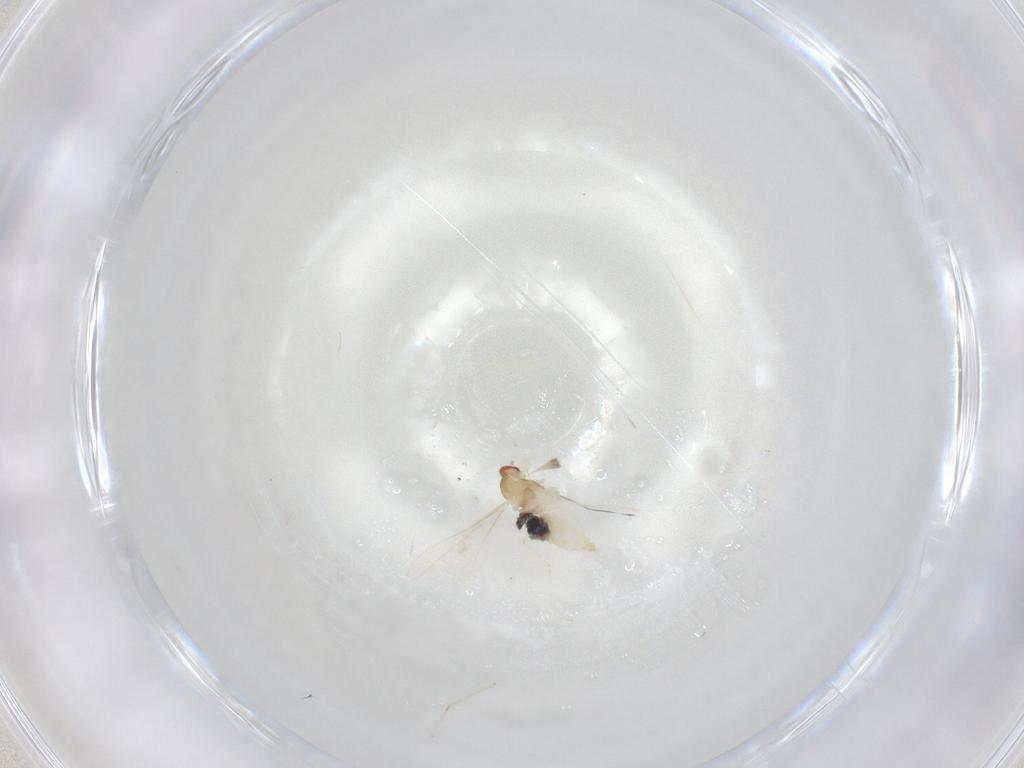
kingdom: Animalia
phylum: Arthropoda
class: Insecta
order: Diptera
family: Cecidomyiidae
